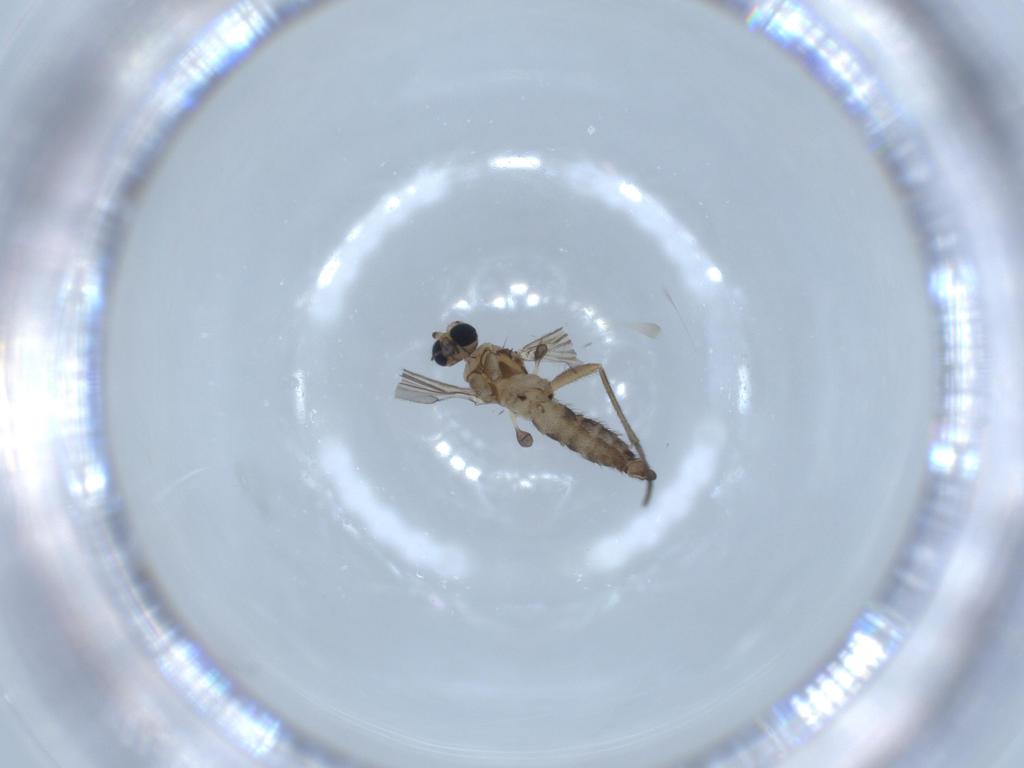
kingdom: Animalia
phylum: Arthropoda
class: Insecta
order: Diptera
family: Sciaridae
